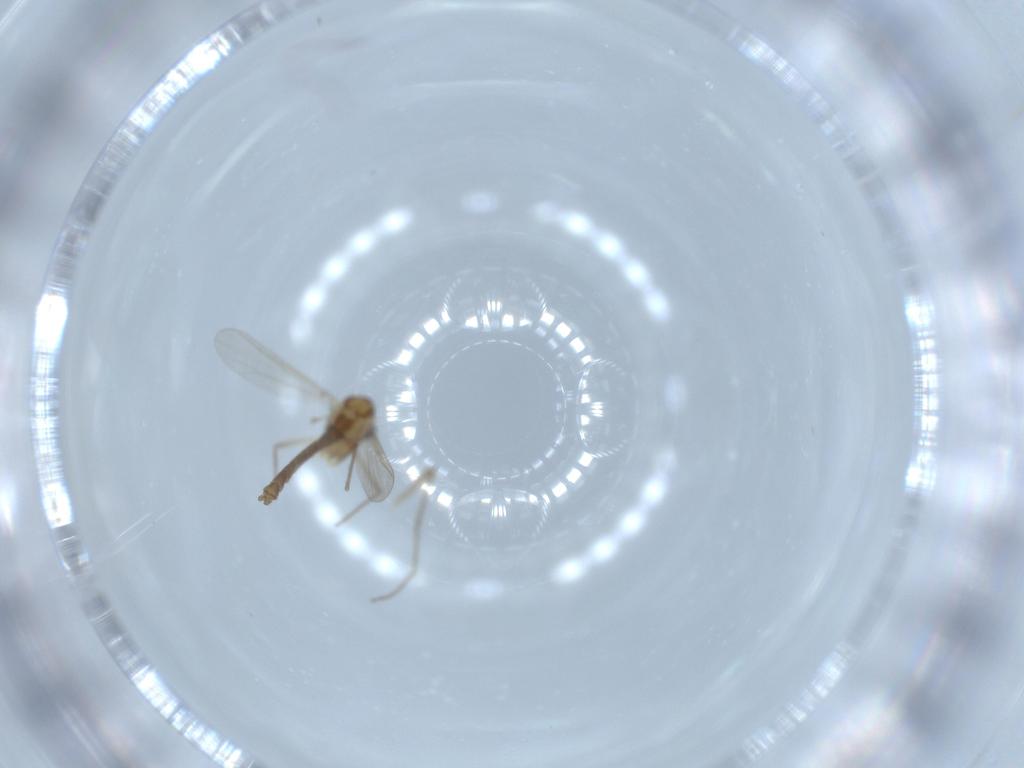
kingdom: Animalia
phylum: Arthropoda
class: Insecta
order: Diptera
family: Chironomidae
